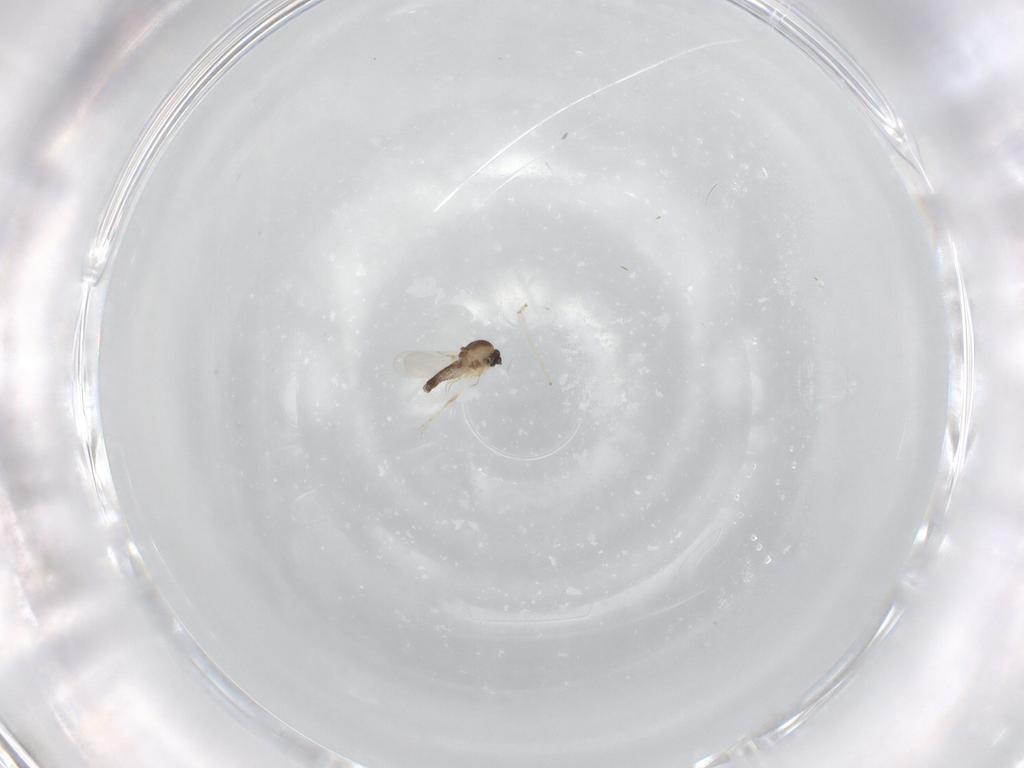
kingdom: Animalia
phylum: Arthropoda
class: Insecta
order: Diptera
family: Ceratopogonidae
